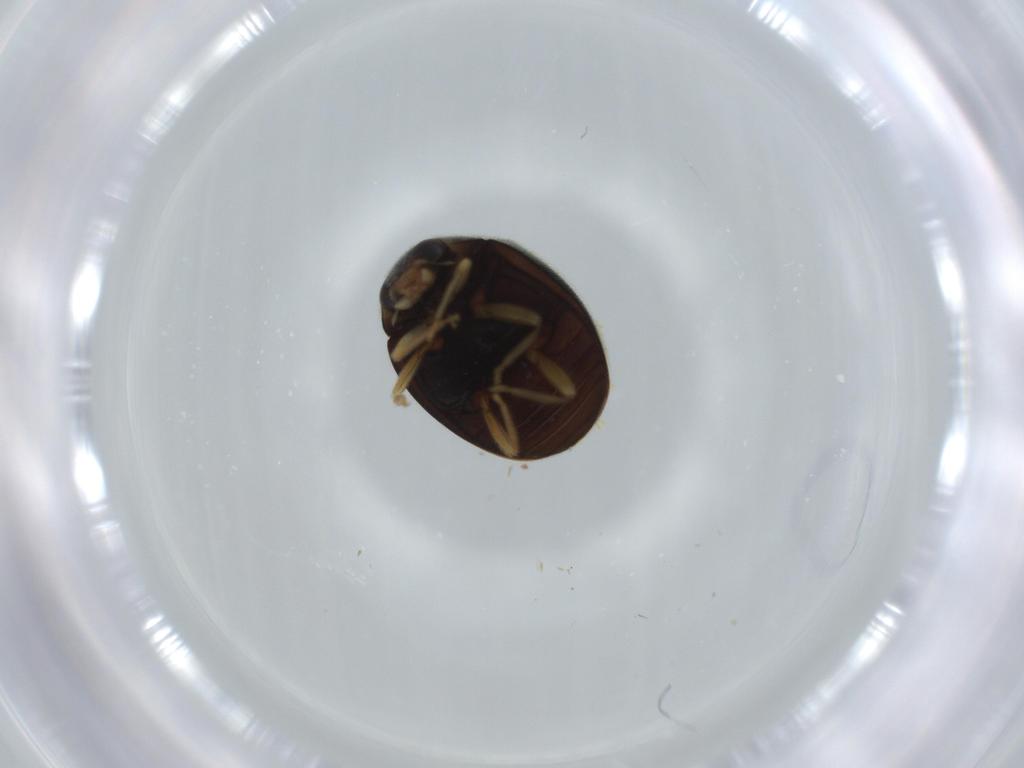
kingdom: Animalia
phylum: Arthropoda
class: Insecta
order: Coleoptera
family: Coccinellidae
